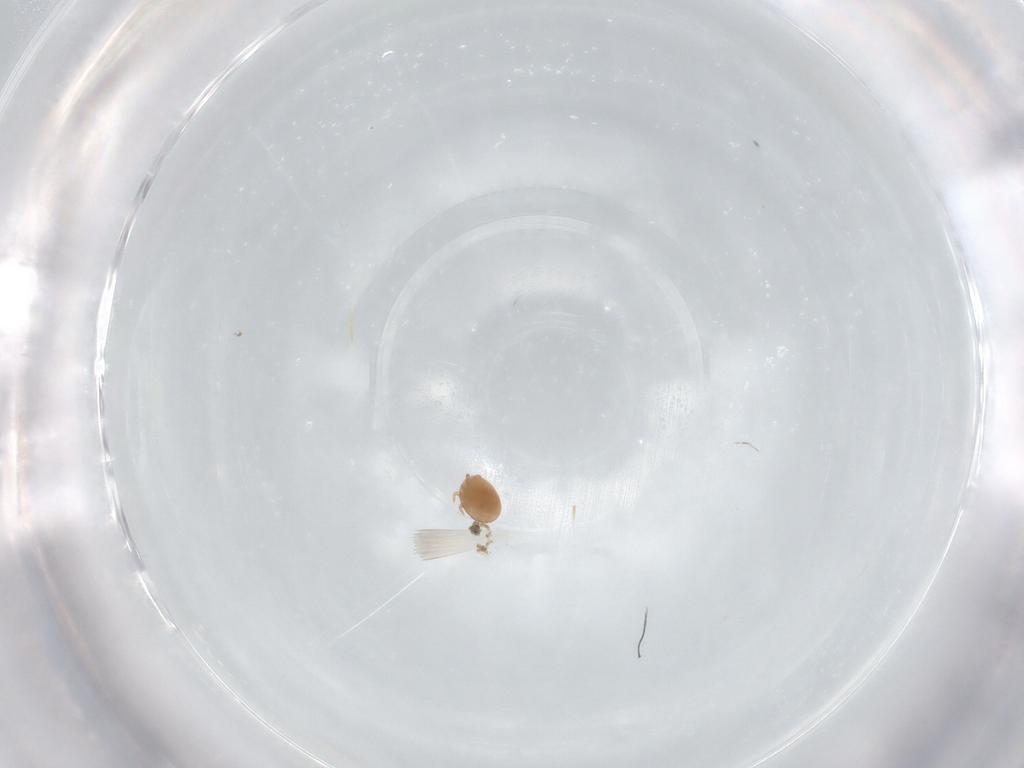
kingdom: Animalia
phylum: Arthropoda
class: Arachnida
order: Mesostigmata
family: Trematuridae
